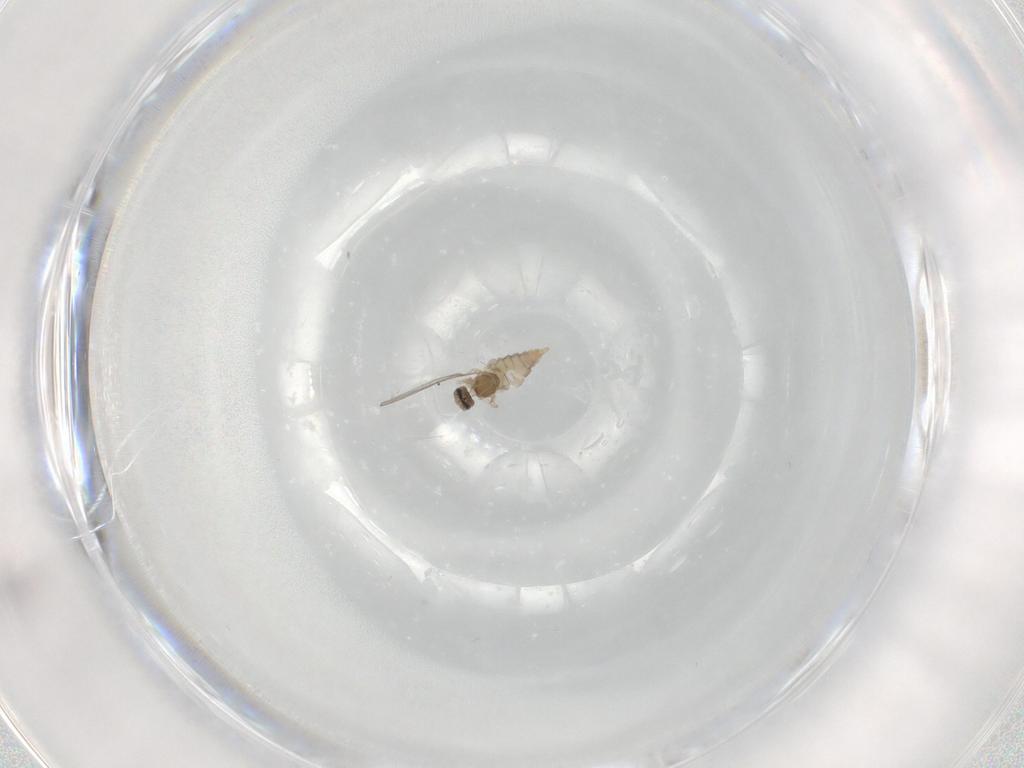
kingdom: Animalia
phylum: Arthropoda
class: Insecta
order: Diptera
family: Cecidomyiidae
